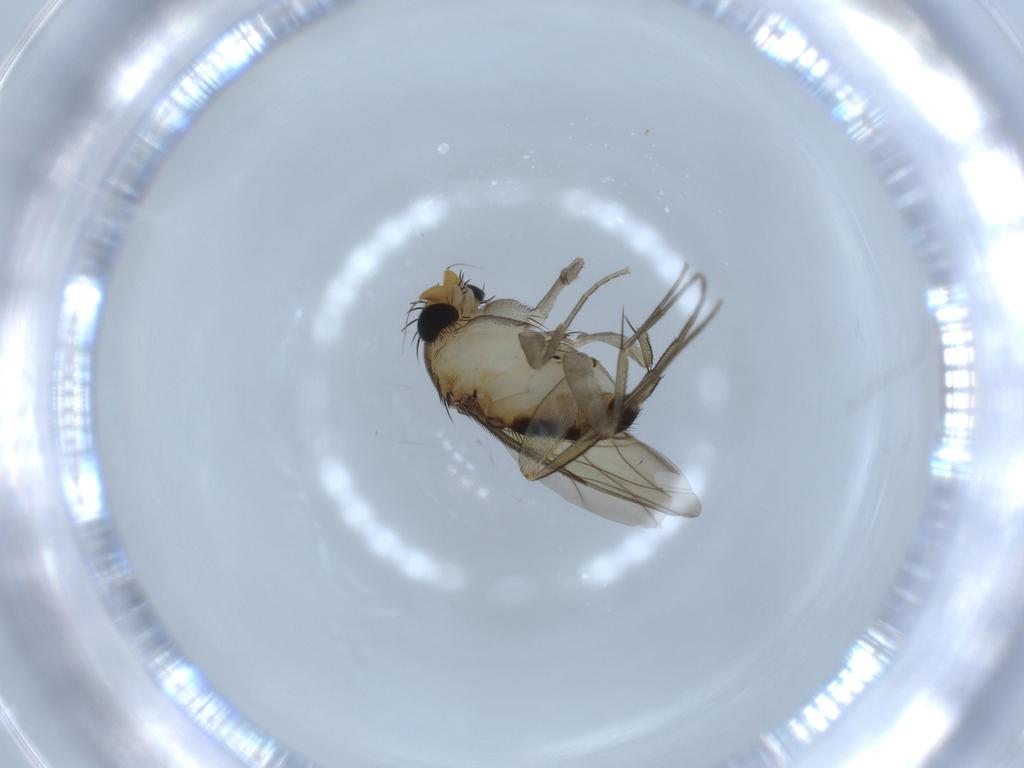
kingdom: Animalia
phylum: Arthropoda
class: Insecta
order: Diptera
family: Phoridae
